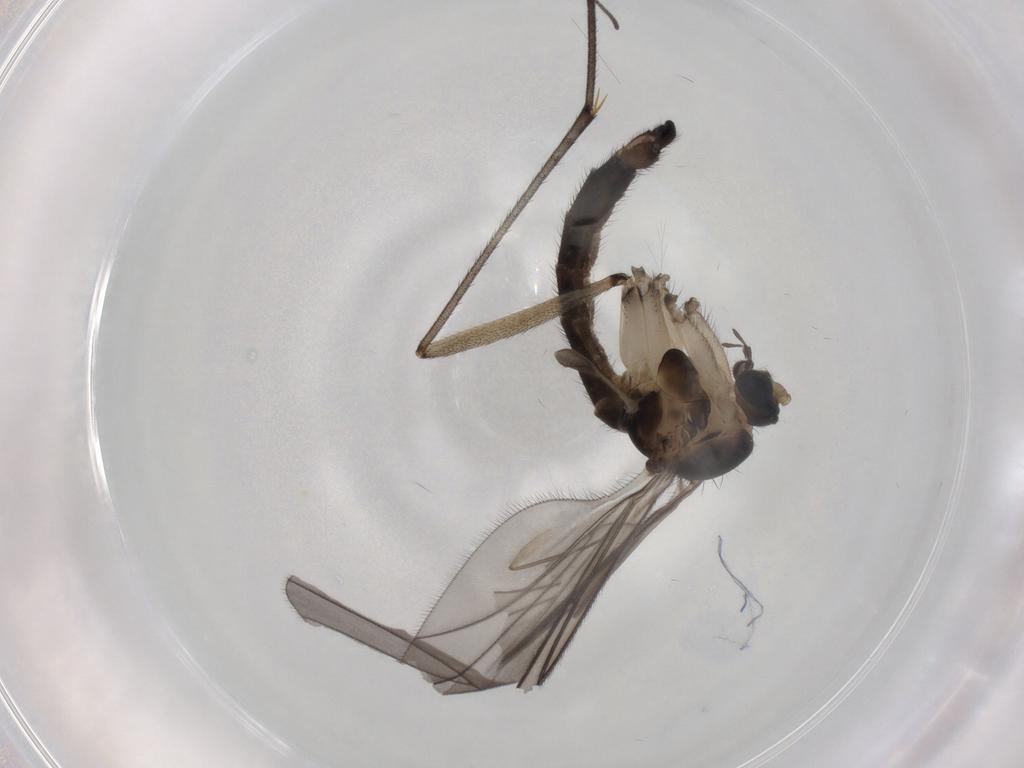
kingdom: Animalia
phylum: Arthropoda
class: Insecta
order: Diptera
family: Sciaridae
